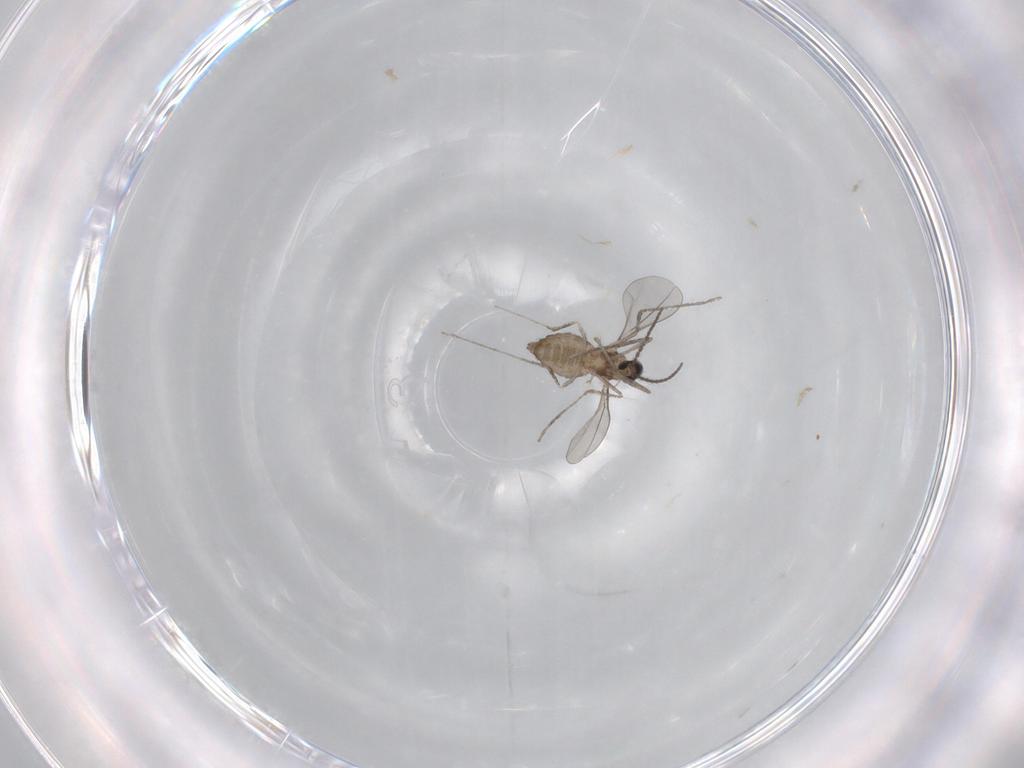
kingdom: Animalia
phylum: Arthropoda
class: Insecta
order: Diptera
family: Cecidomyiidae
